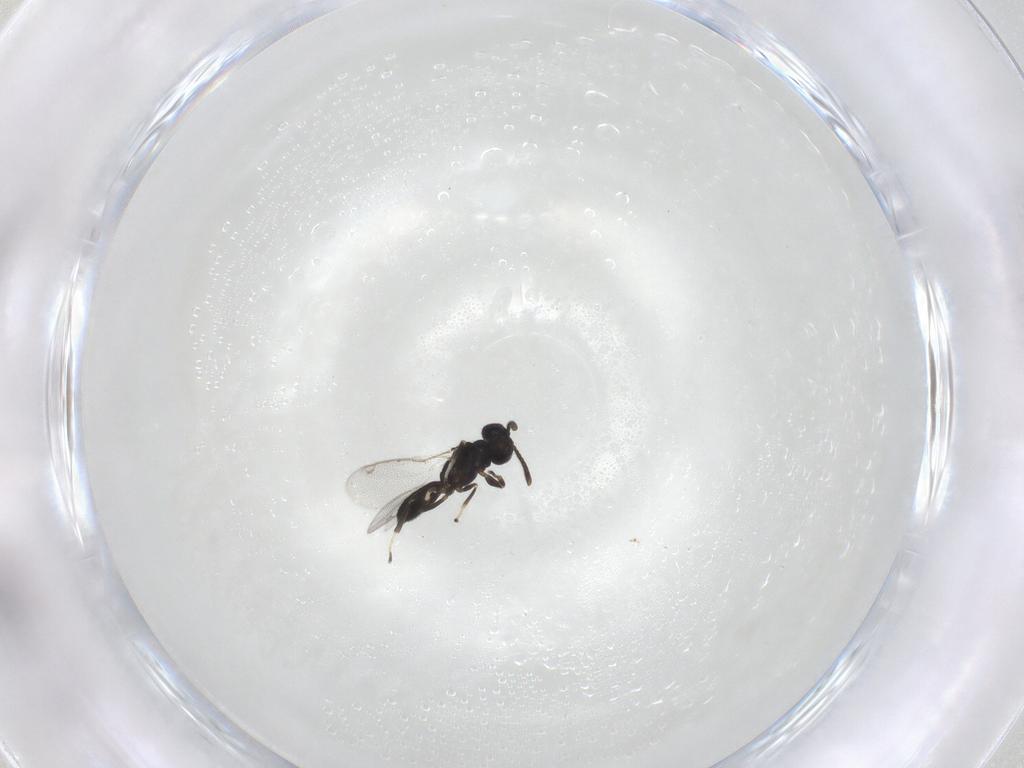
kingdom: Animalia
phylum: Arthropoda
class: Insecta
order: Hymenoptera
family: Eupelmidae
